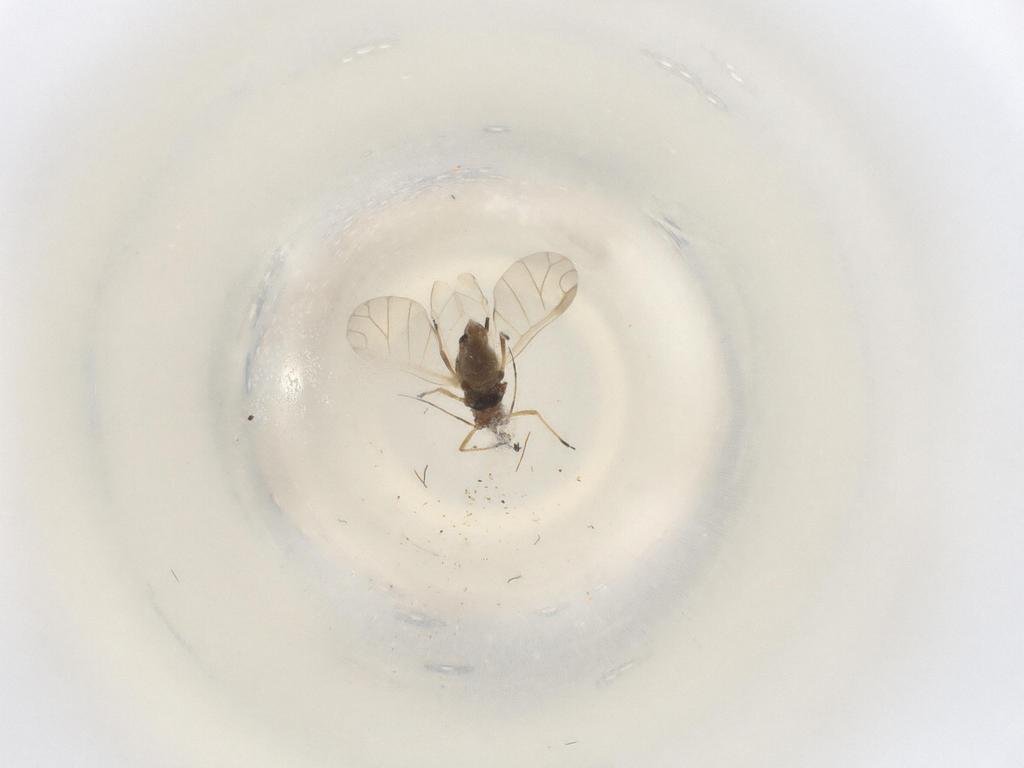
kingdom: Animalia
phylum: Arthropoda
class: Insecta
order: Hemiptera
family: Aphididae
